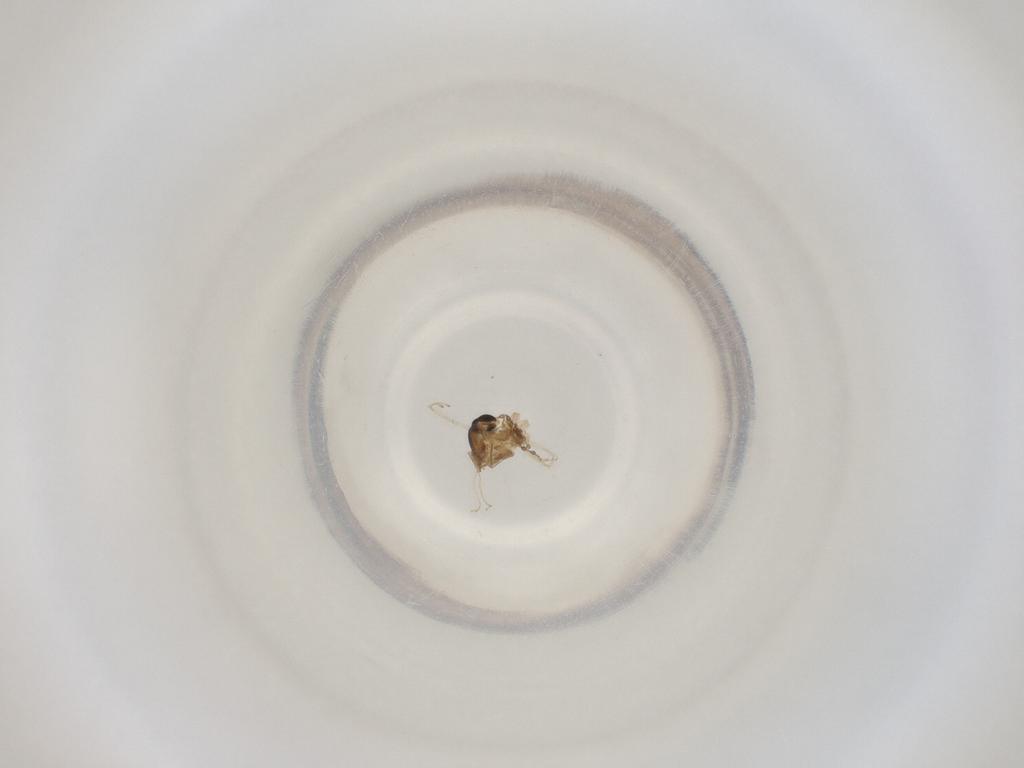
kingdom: Animalia
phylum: Arthropoda
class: Insecta
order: Diptera
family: Cecidomyiidae
